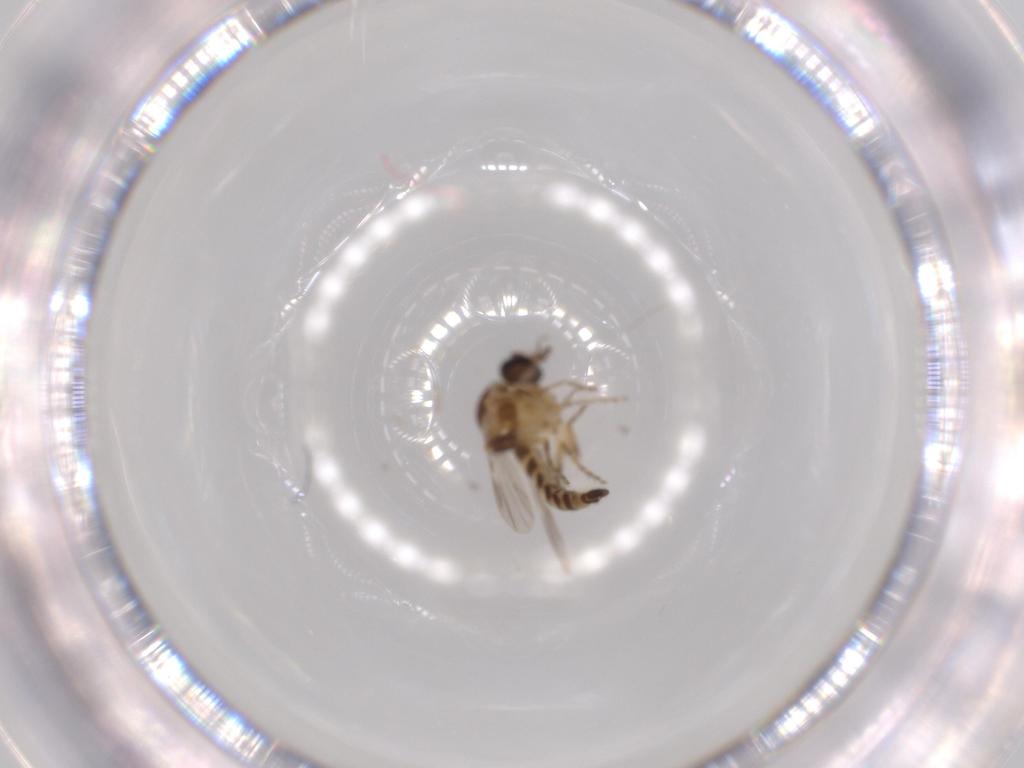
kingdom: Animalia
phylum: Arthropoda
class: Insecta
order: Diptera
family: Ceratopogonidae
